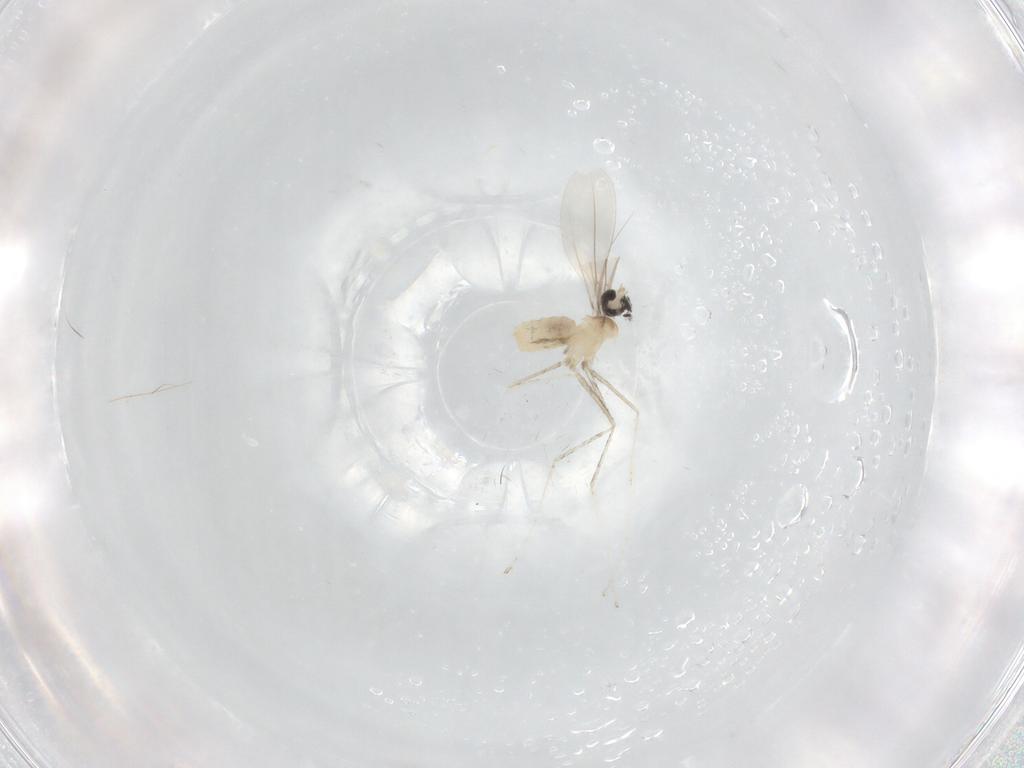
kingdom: Animalia
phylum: Arthropoda
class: Insecta
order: Diptera
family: Cecidomyiidae
